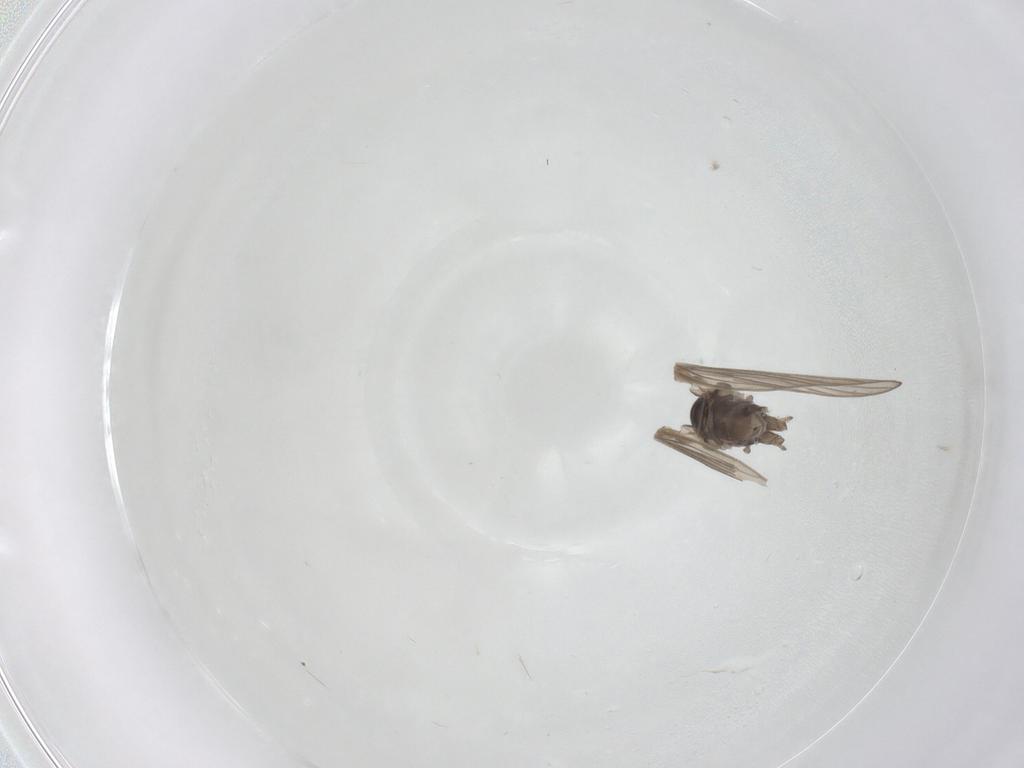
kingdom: Animalia
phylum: Arthropoda
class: Insecta
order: Diptera
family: Psychodidae
